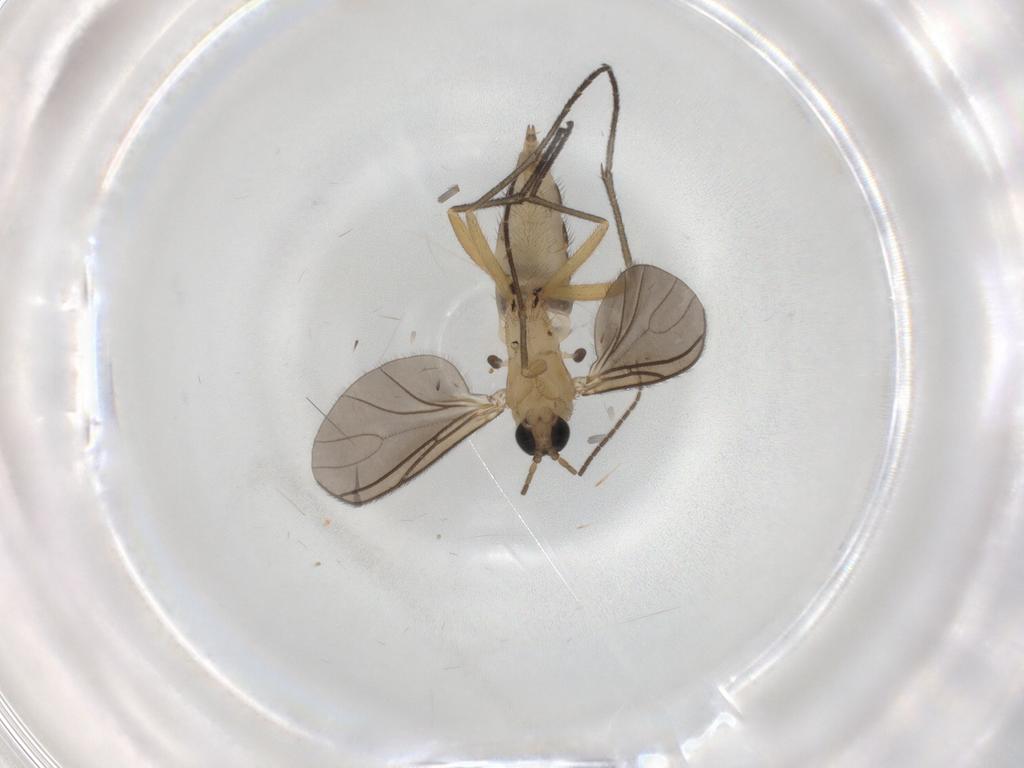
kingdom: Animalia
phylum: Arthropoda
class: Insecta
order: Diptera
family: Sciaridae
